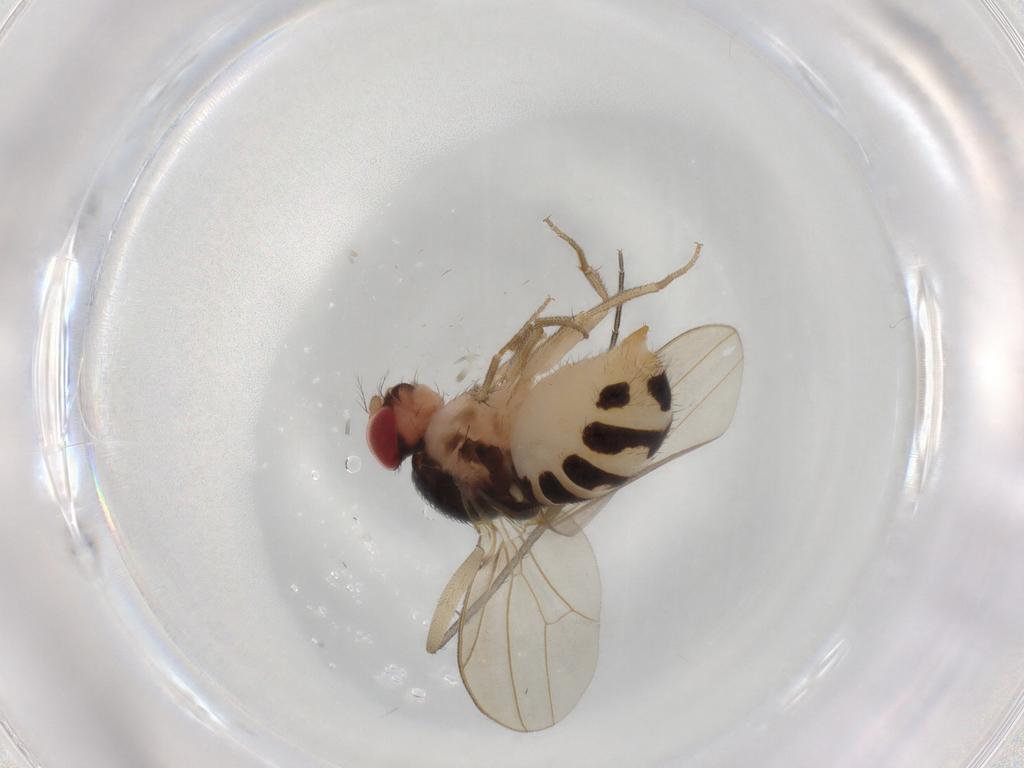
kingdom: Animalia
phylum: Arthropoda
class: Insecta
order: Diptera
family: Drosophilidae
